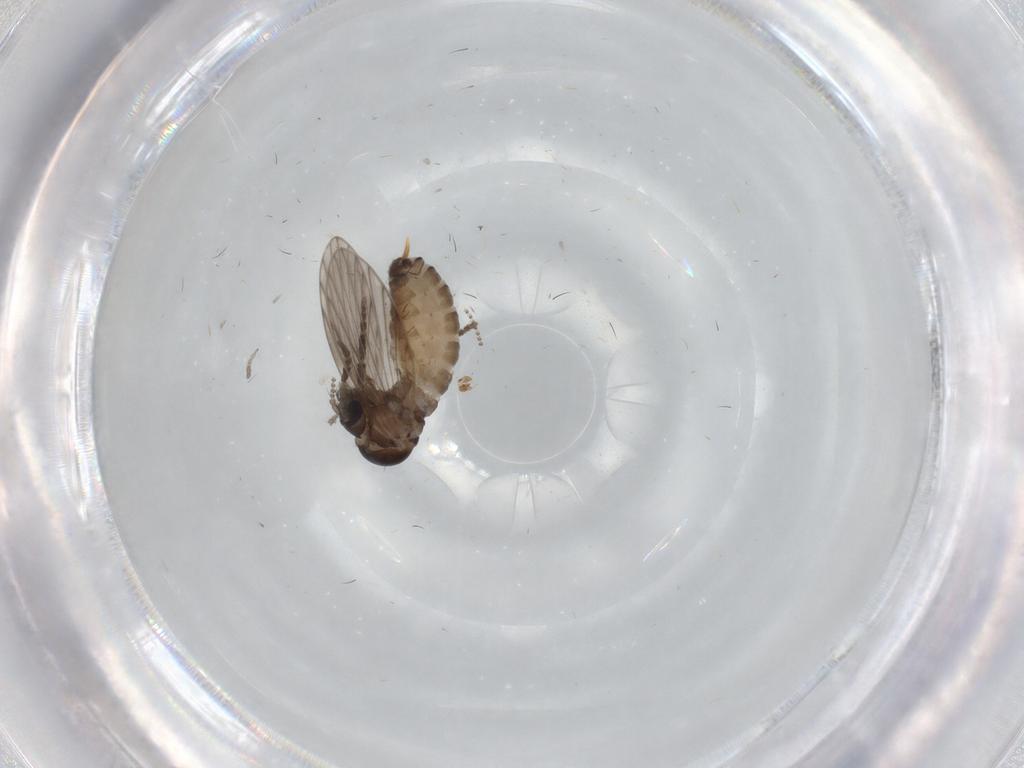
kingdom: Animalia
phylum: Arthropoda
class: Insecta
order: Diptera
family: Psychodidae
